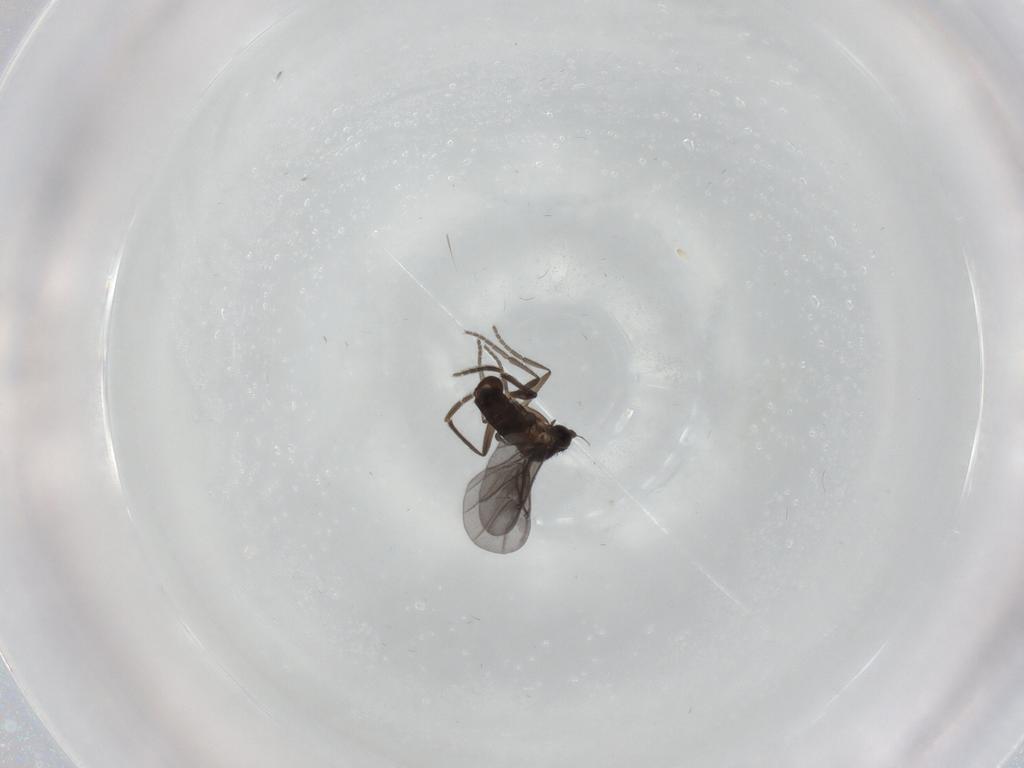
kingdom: Animalia
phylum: Arthropoda
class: Insecta
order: Diptera
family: Phoridae
